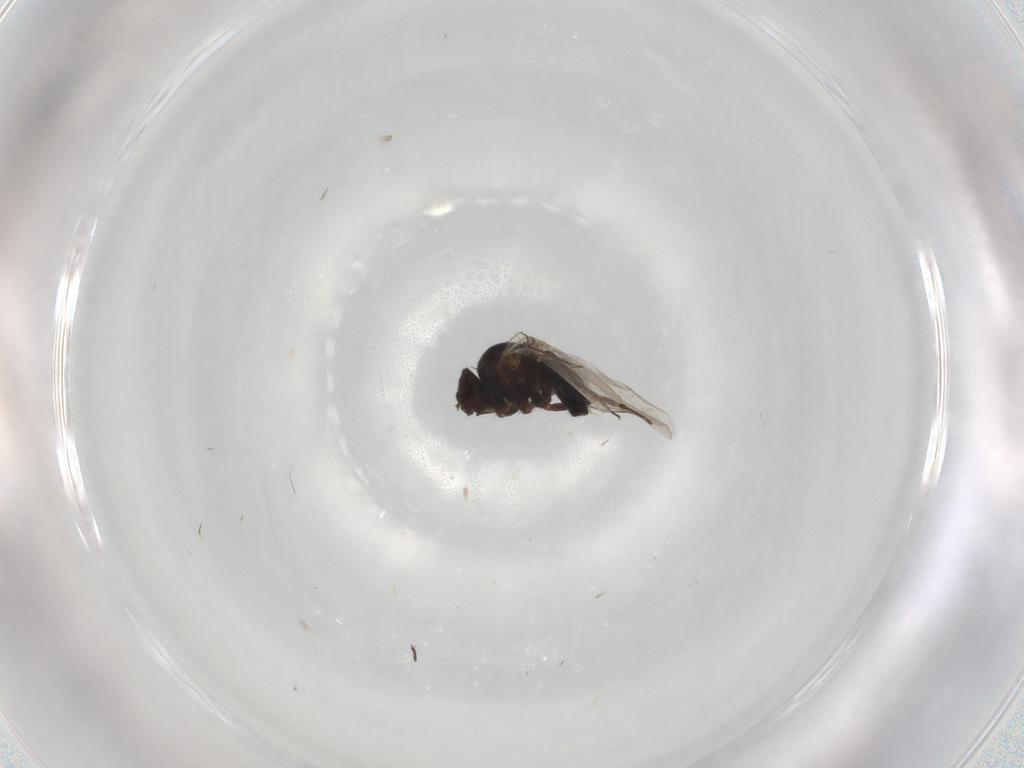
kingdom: Animalia
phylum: Arthropoda
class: Insecta
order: Diptera
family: Agromyzidae
